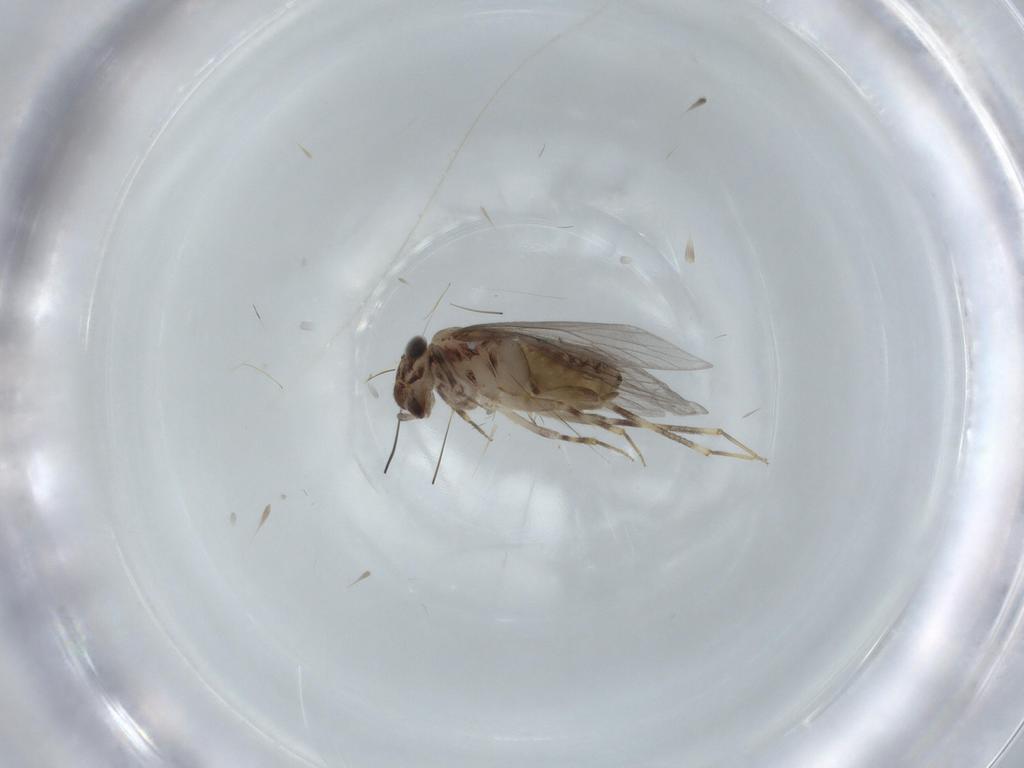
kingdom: Animalia
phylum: Arthropoda
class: Insecta
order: Psocodea
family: Lepidopsocidae
